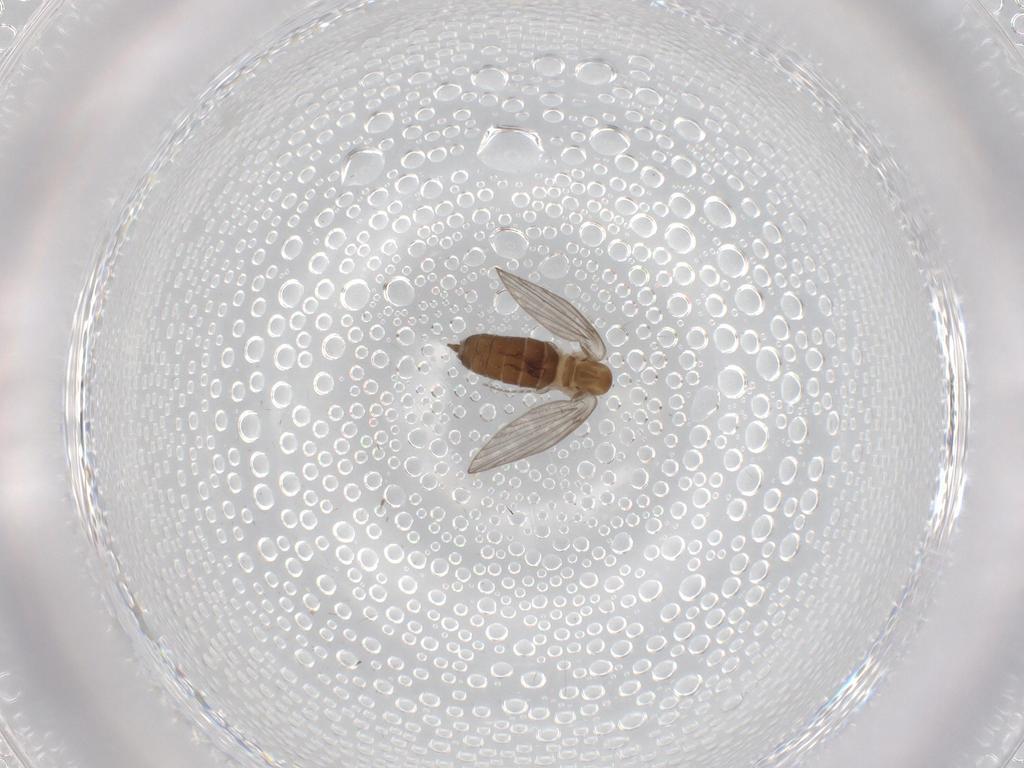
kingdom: Animalia
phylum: Arthropoda
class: Insecta
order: Diptera
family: Chironomidae
